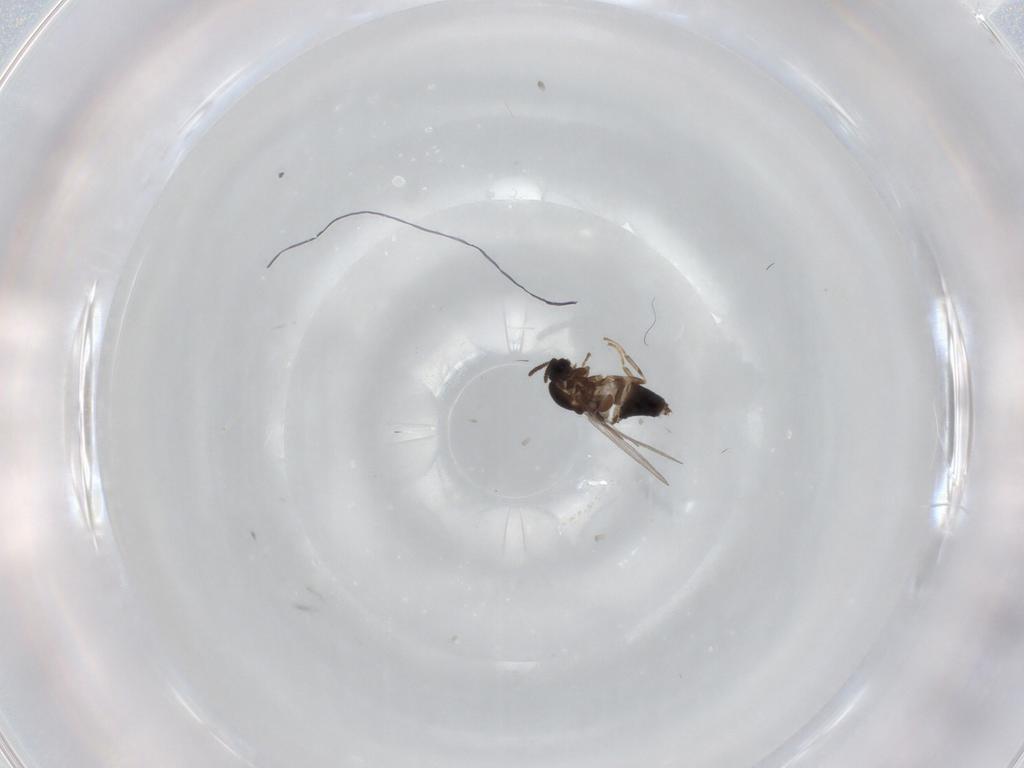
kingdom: Animalia
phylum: Arthropoda
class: Insecta
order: Diptera
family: Scatopsidae
